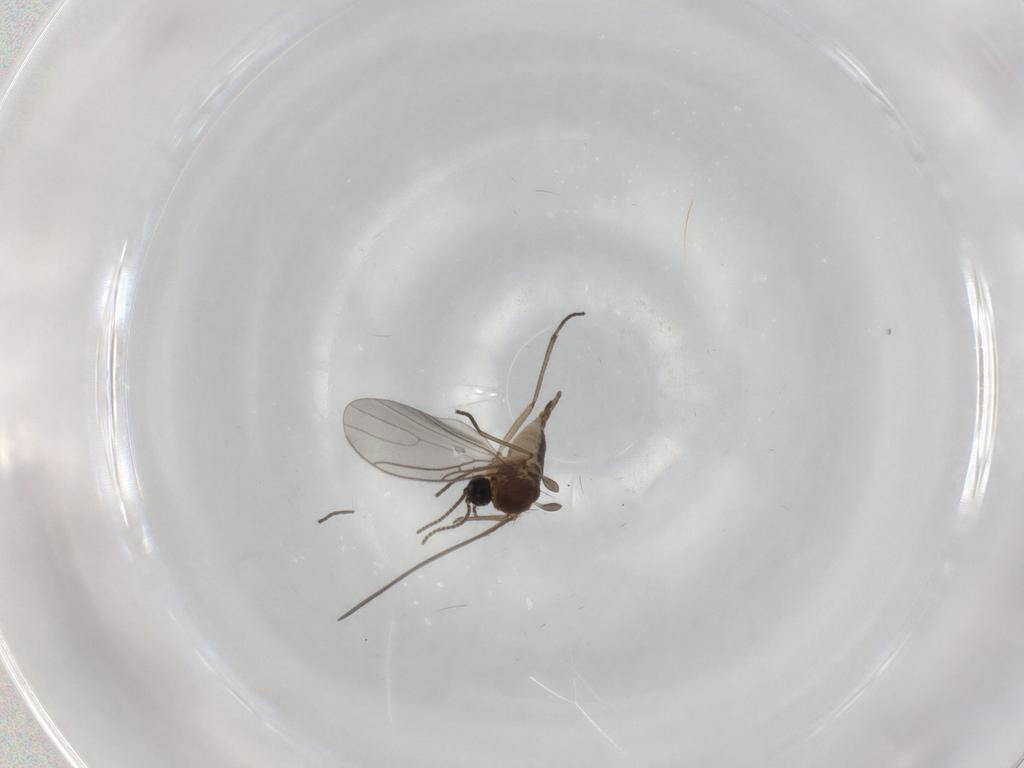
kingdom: Animalia
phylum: Arthropoda
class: Insecta
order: Diptera
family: Sciaridae
